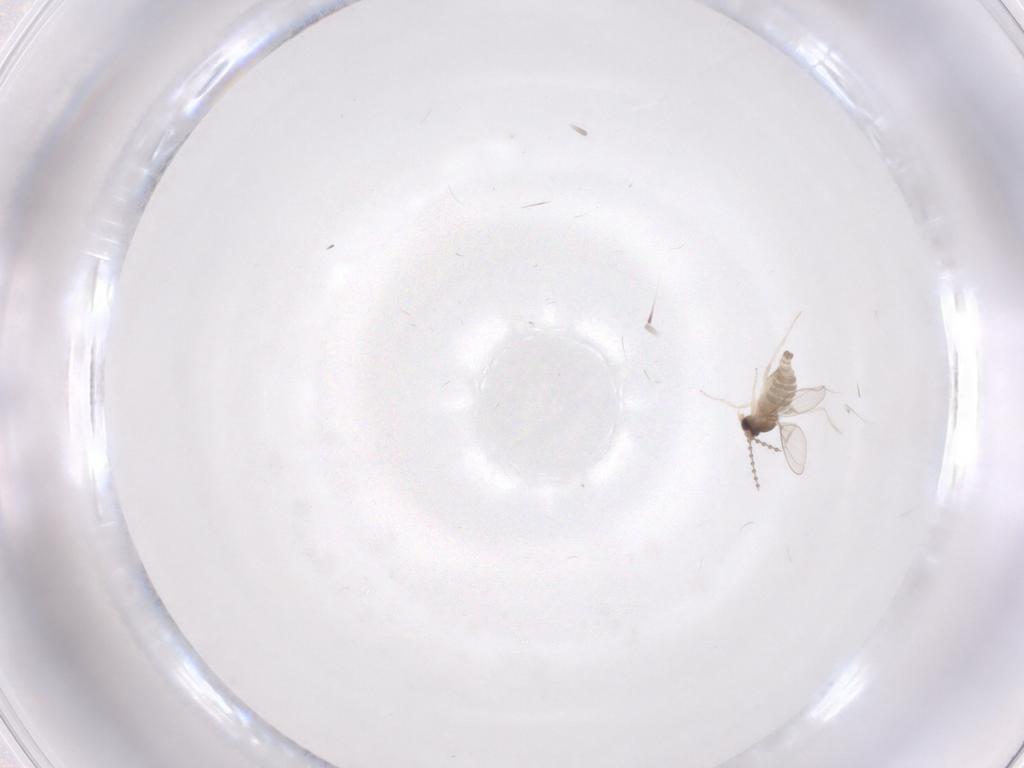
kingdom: Animalia
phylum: Arthropoda
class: Insecta
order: Diptera
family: Cecidomyiidae
